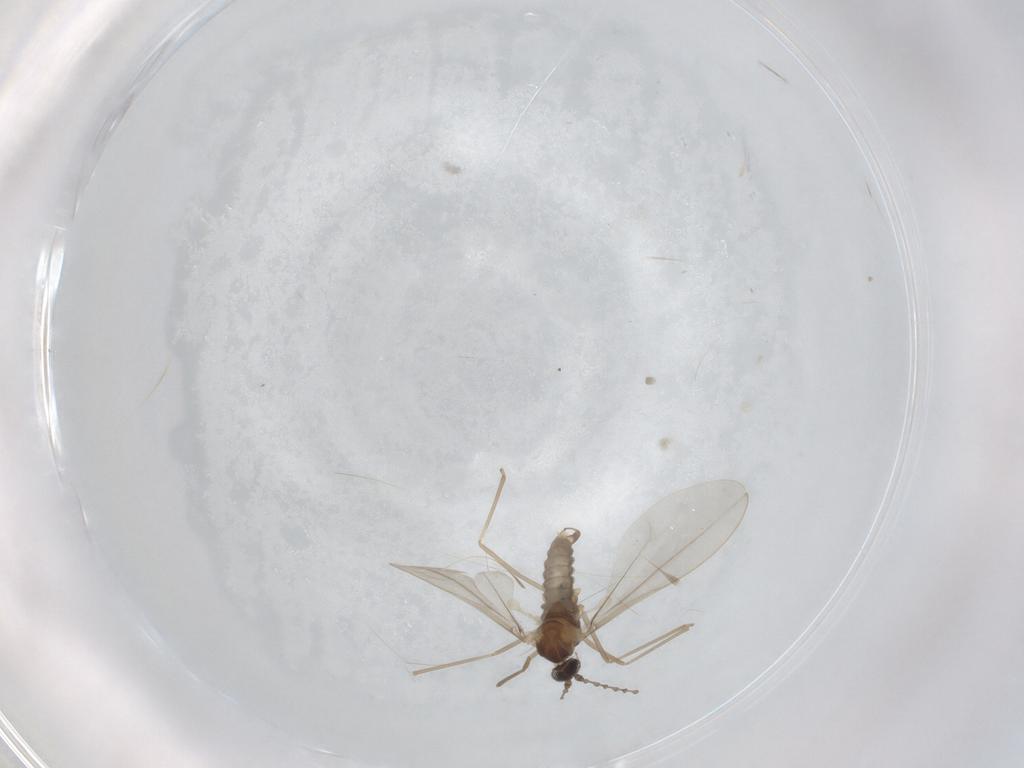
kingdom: Animalia
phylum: Arthropoda
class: Insecta
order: Diptera
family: Cecidomyiidae
